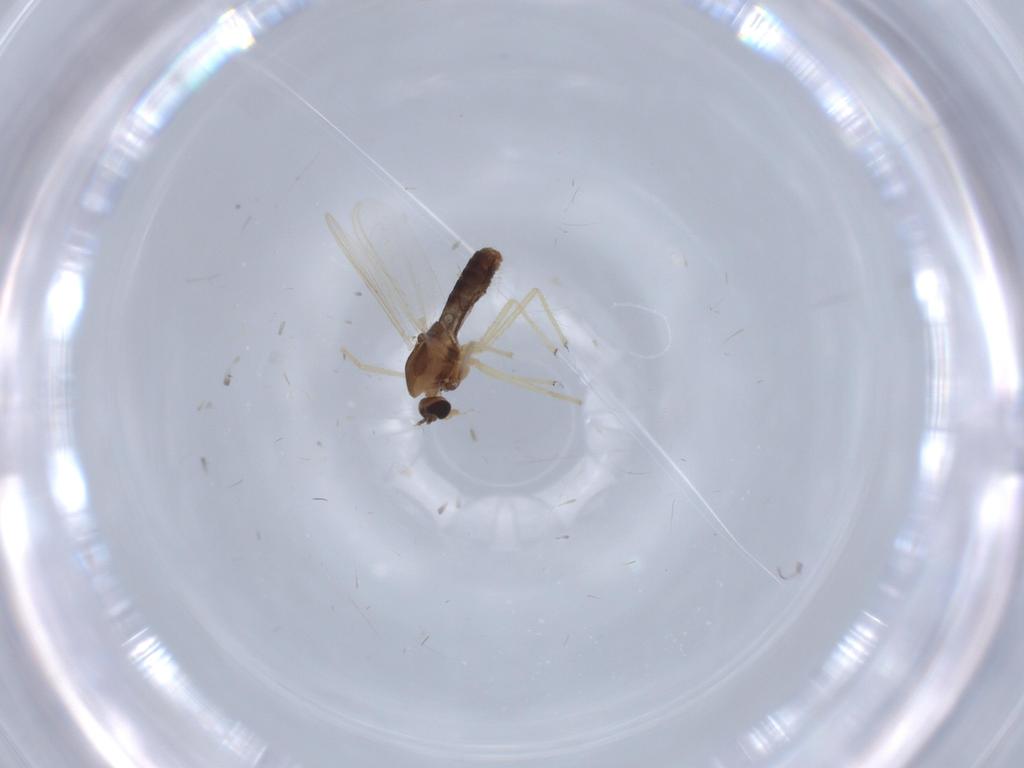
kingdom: Animalia
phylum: Arthropoda
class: Insecta
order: Diptera
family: Chironomidae
